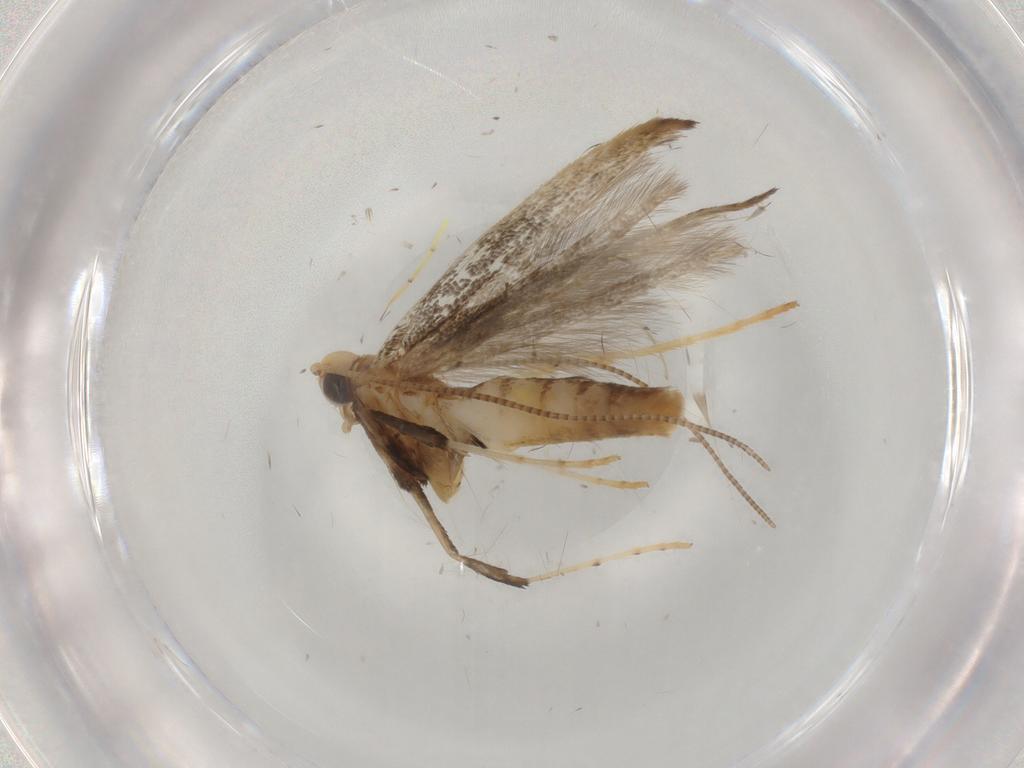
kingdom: Animalia
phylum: Arthropoda
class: Insecta
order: Lepidoptera
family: Gracillariidae
